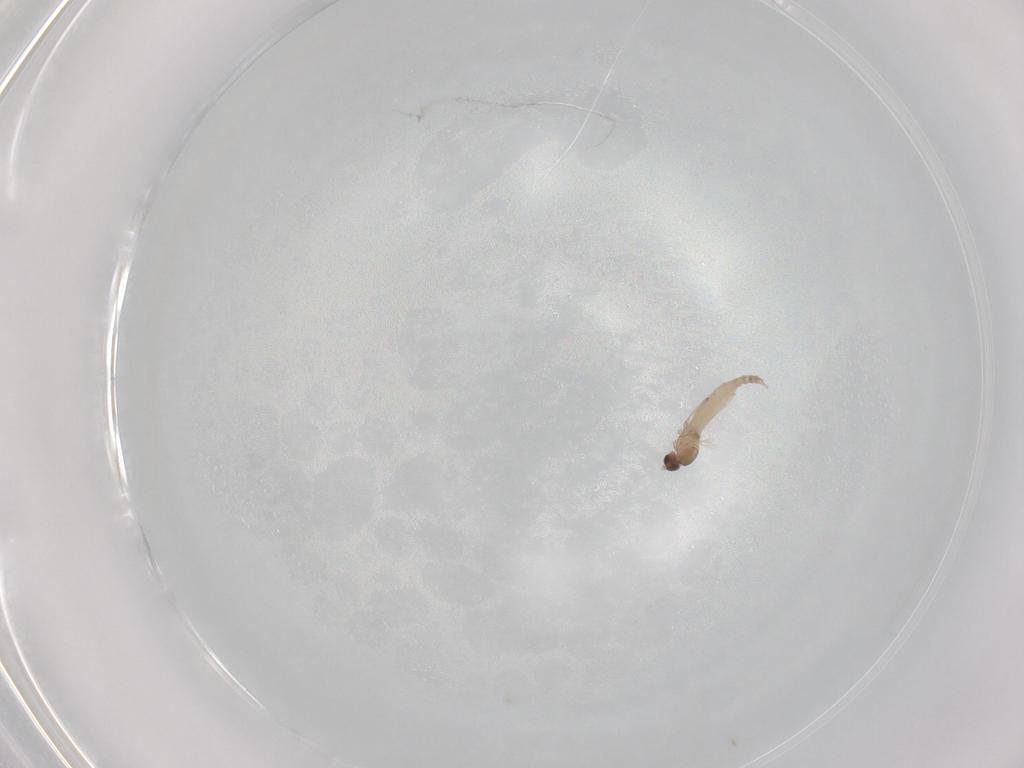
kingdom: Animalia
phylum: Arthropoda
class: Insecta
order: Diptera
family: Cecidomyiidae
